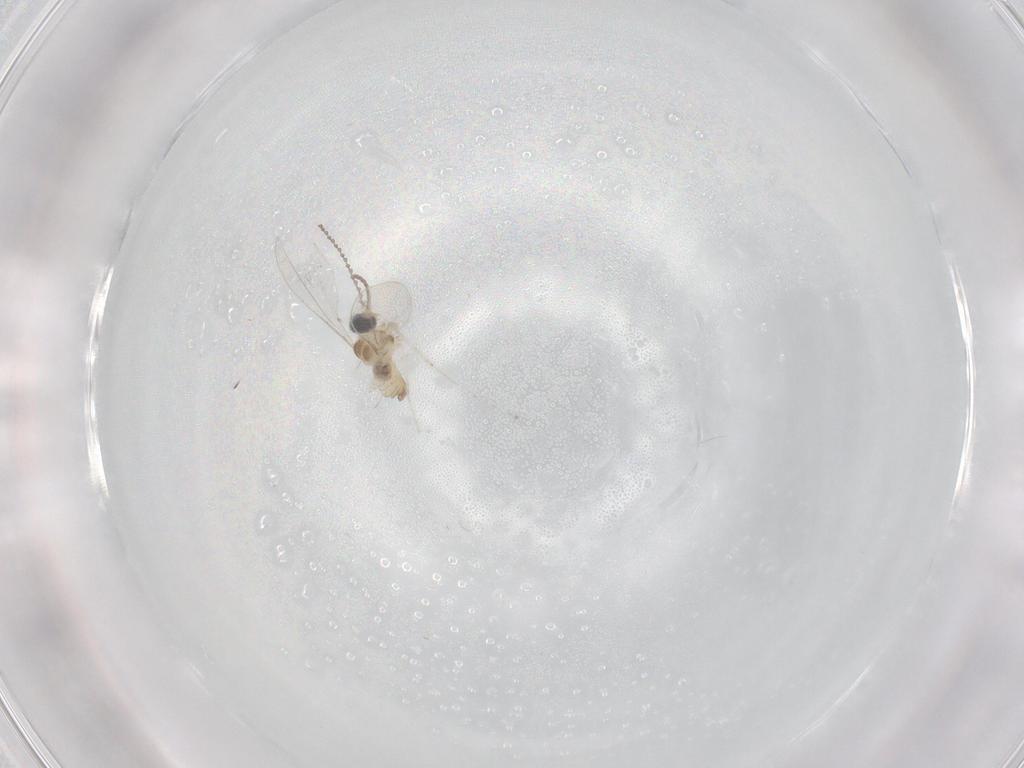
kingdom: Animalia
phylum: Arthropoda
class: Insecta
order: Diptera
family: Cecidomyiidae
